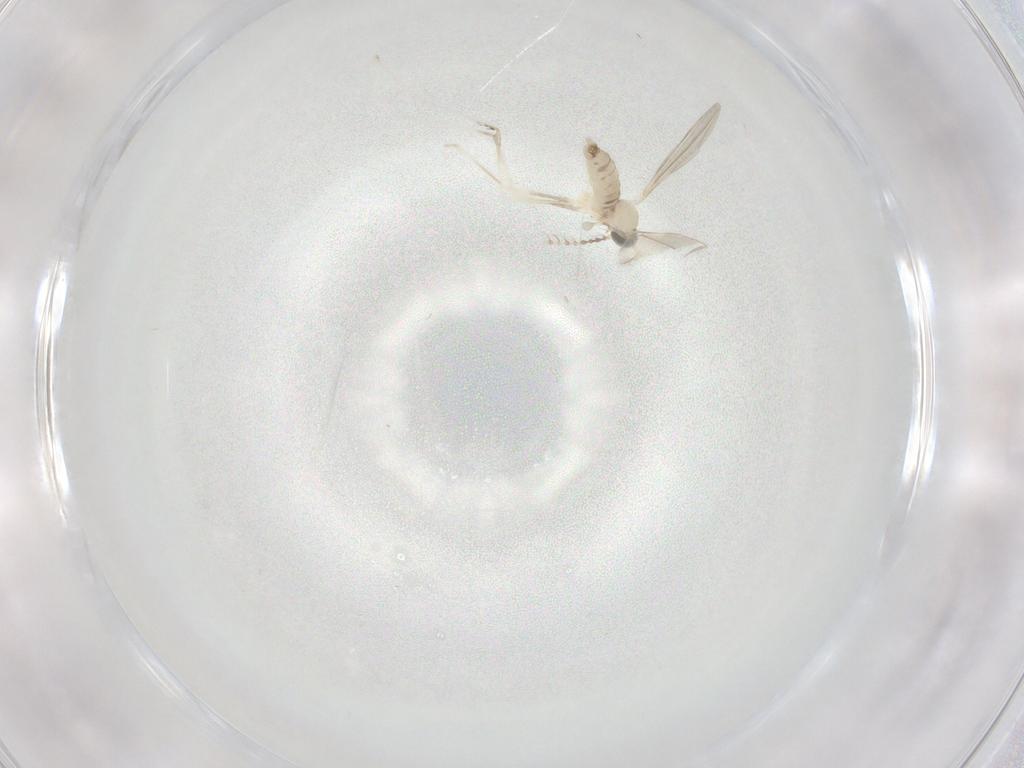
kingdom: Animalia
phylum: Arthropoda
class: Insecta
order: Diptera
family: Cecidomyiidae
